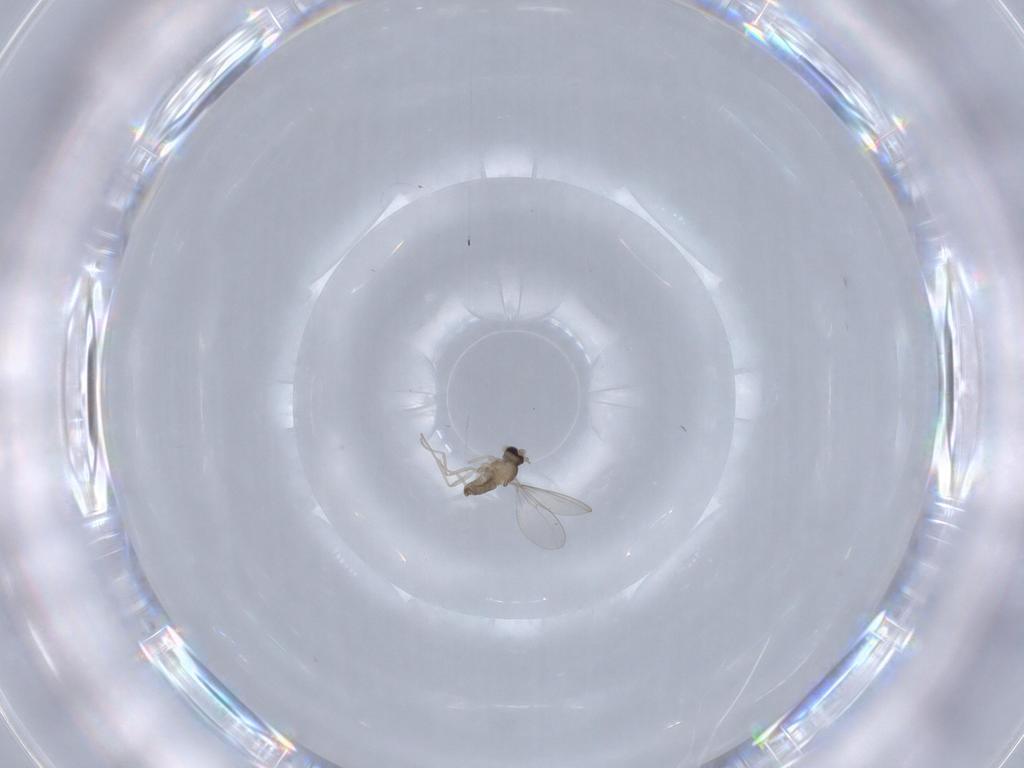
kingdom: Animalia
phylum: Arthropoda
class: Insecta
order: Diptera
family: Cecidomyiidae
